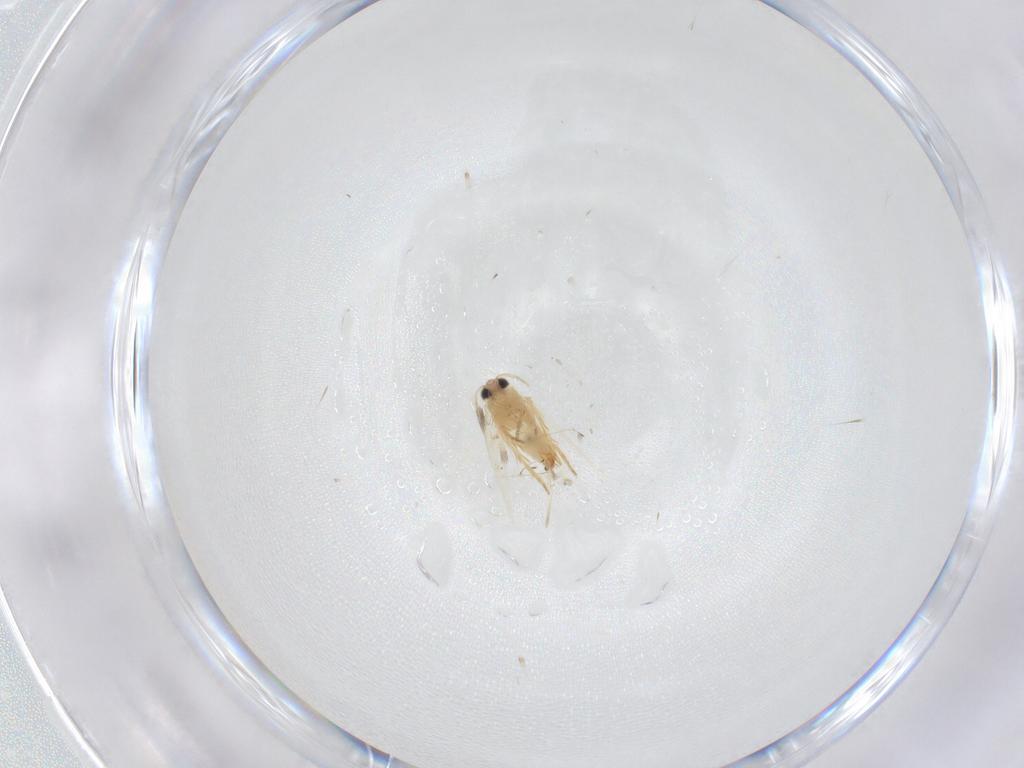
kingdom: Animalia
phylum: Arthropoda
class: Insecta
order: Lepidoptera
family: Crambidae
